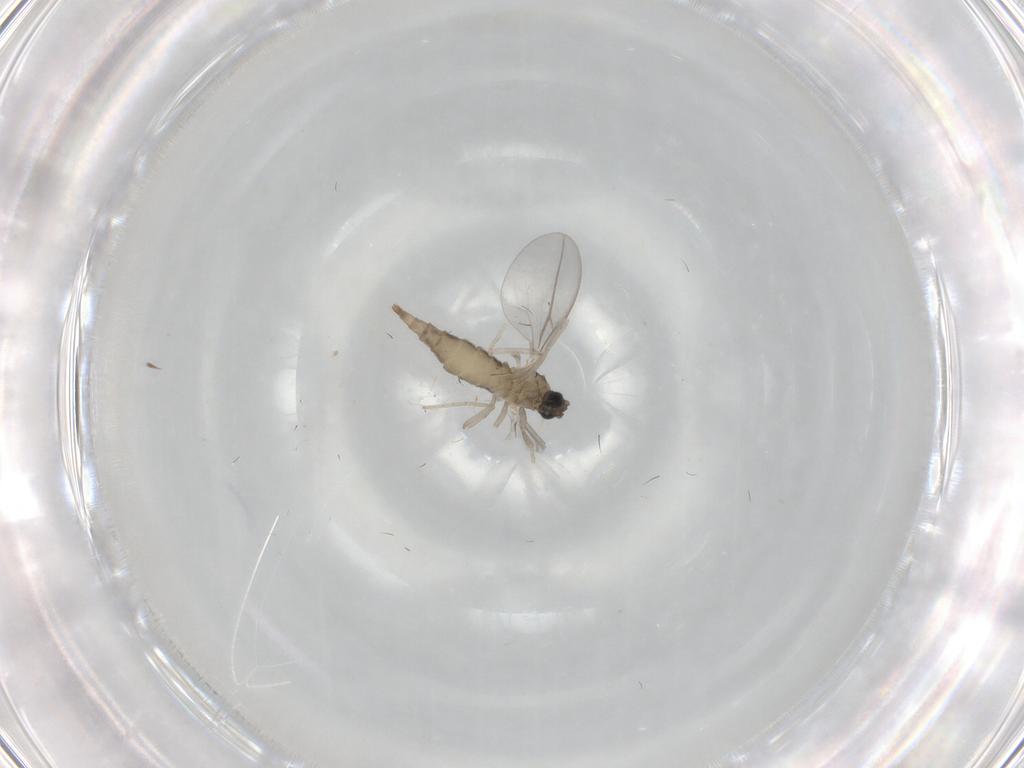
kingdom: Animalia
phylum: Arthropoda
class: Insecta
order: Diptera
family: Cecidomyiidae
